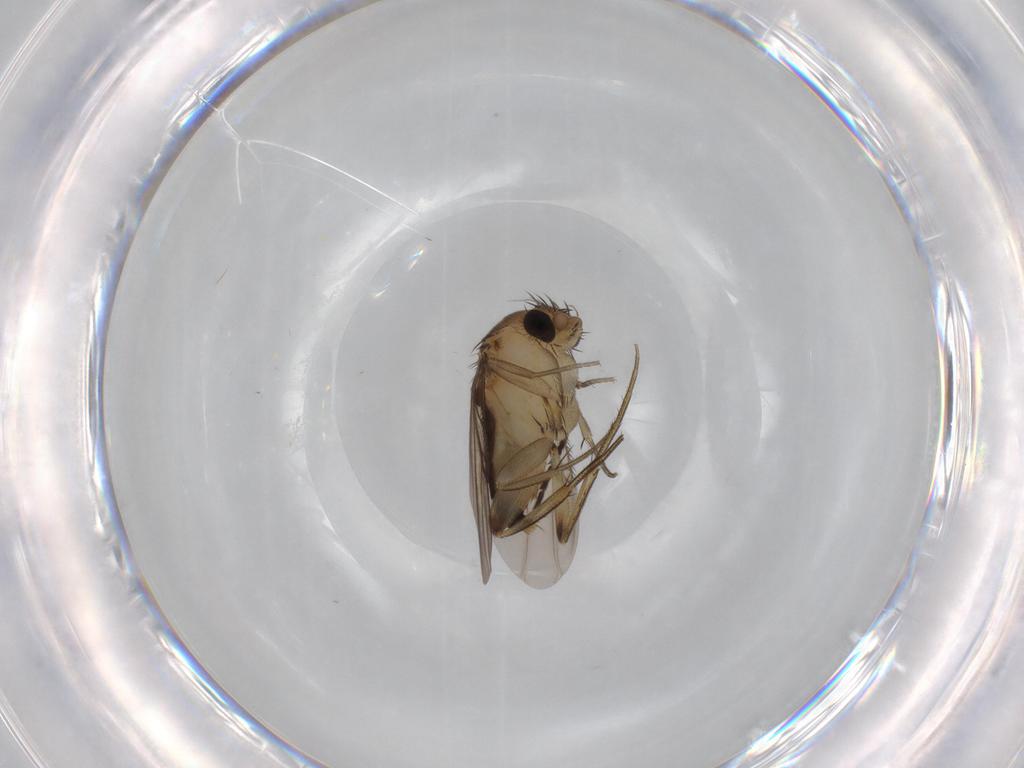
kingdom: Animalia
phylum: Arthropoda
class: Insecta
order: Diptera
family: Phoridae
